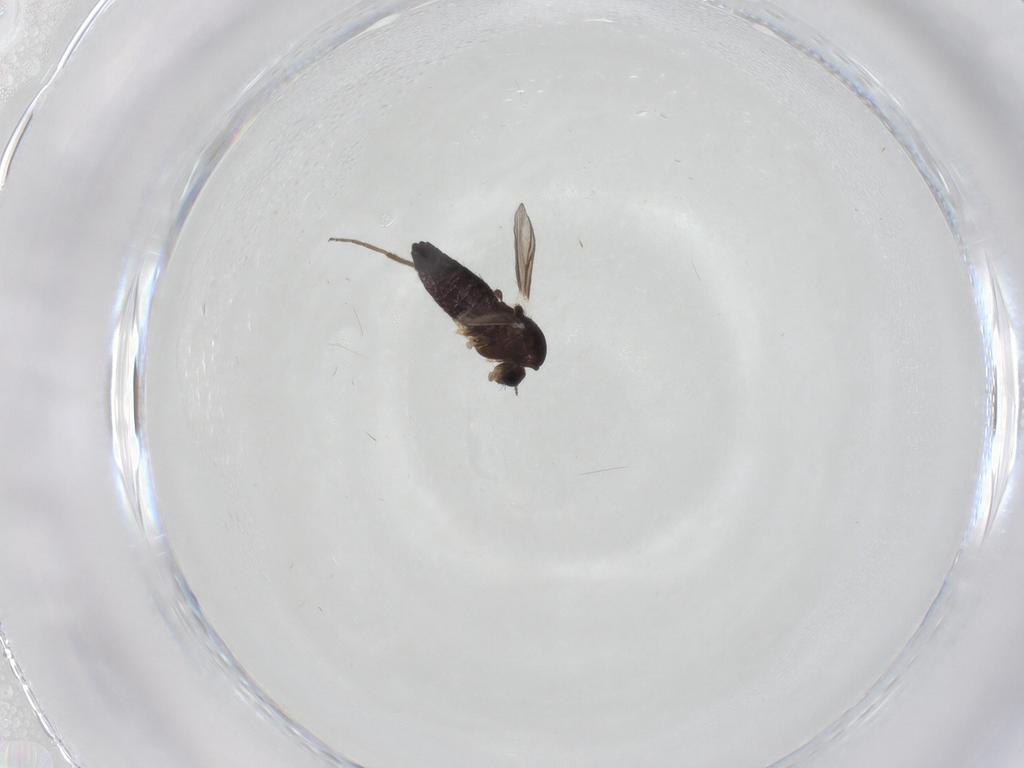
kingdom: Animalia
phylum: Arthropoda
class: Insecta
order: Diptera
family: Chironomidae
